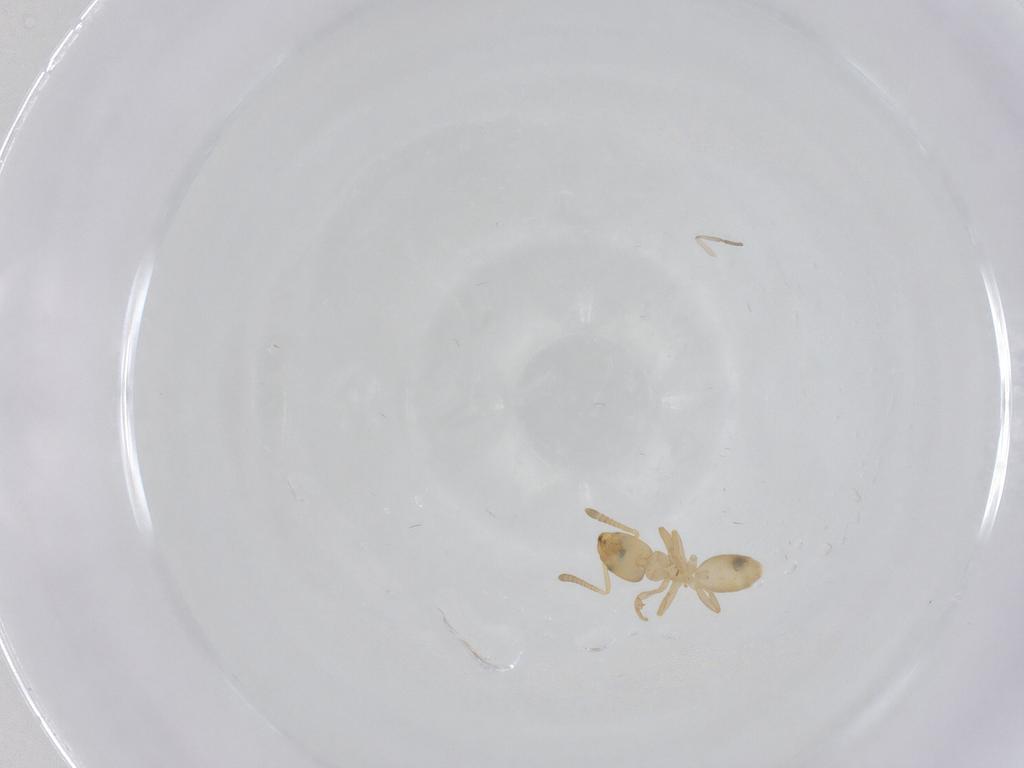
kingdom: Animalia
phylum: Arthropoda
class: Insecta
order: Hymenoptera
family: Formicidae
